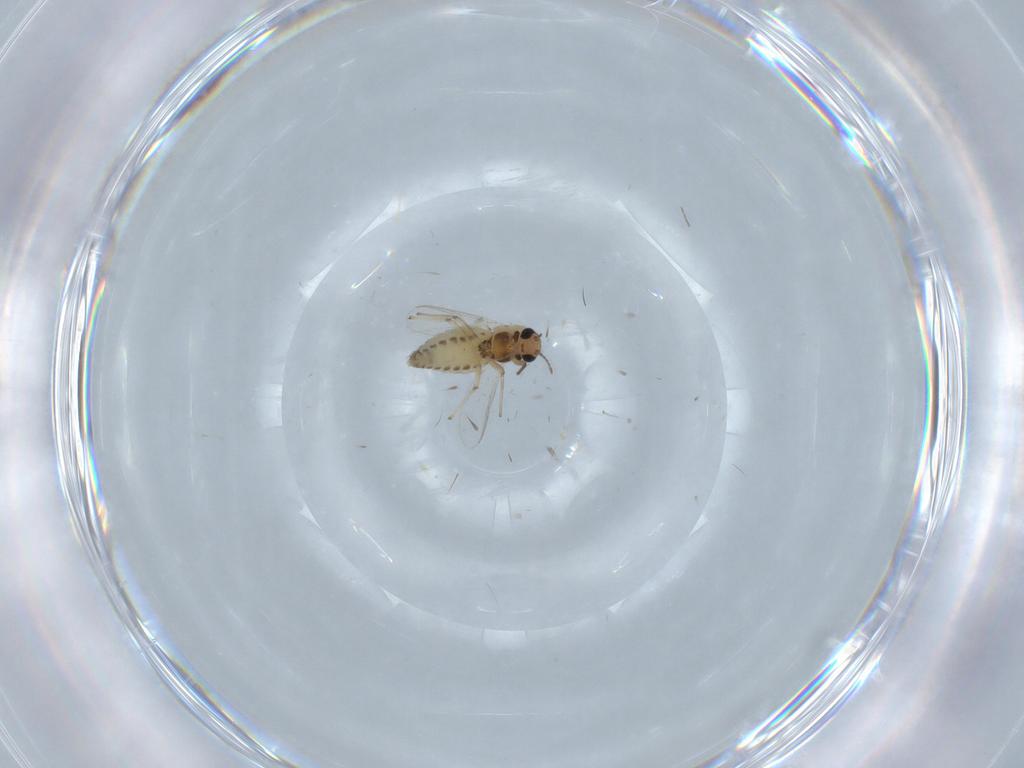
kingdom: Animalia
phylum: Arthropoda
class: Insecta
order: Diptera
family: Chironomidae
